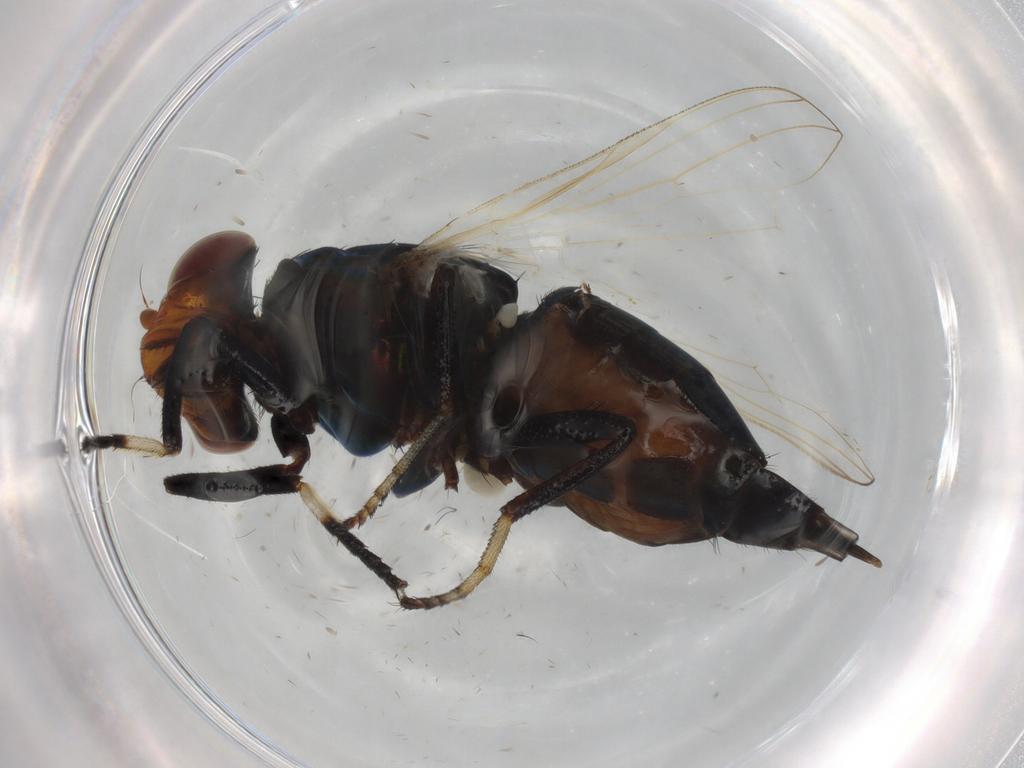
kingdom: Animalia
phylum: Arthropoda
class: Insecta
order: Diptera
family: Ulidiidae
